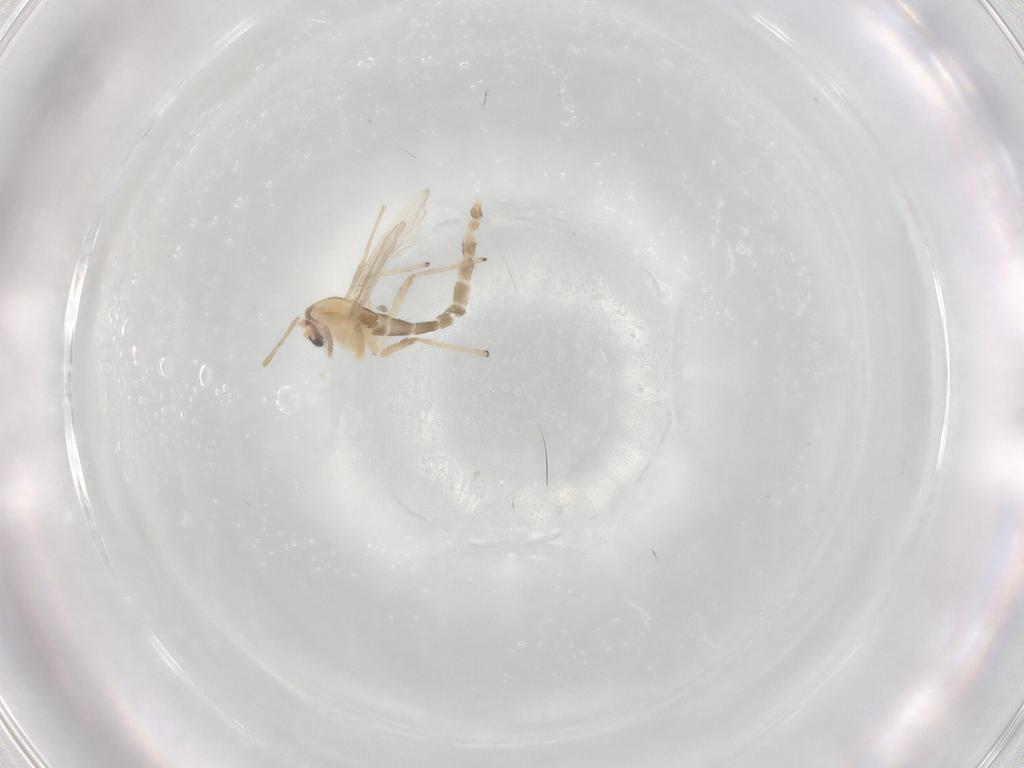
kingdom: Animalia
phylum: Arthropoda
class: Insecta
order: Diptera
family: Chironomidae
